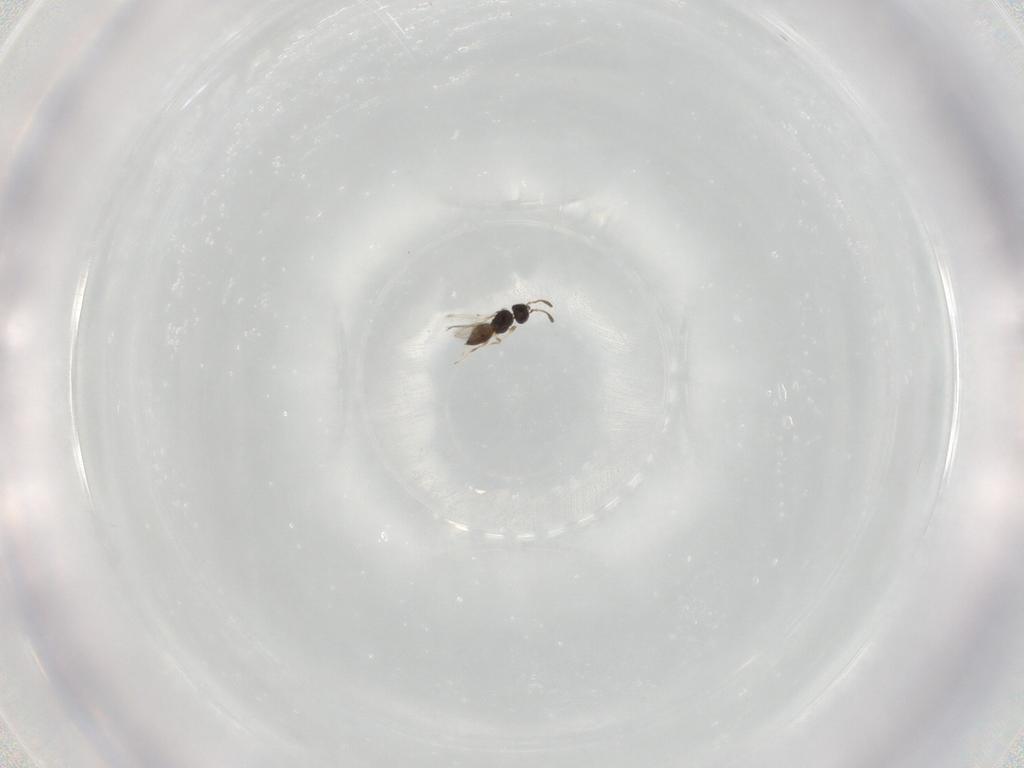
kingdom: Animalia
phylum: Arthropoda
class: Insecta
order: Hymenoptera
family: Scelionidae
